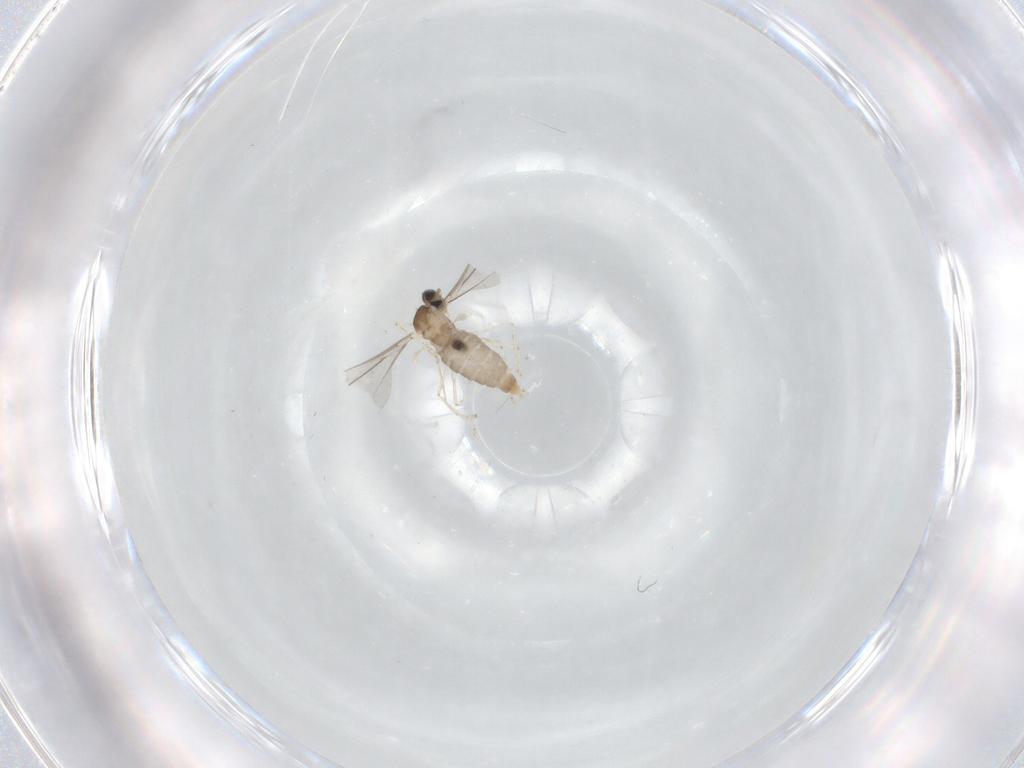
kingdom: Animalia
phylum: Arthropoda
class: Insecta
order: Diptera
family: Cecidomyiidae
